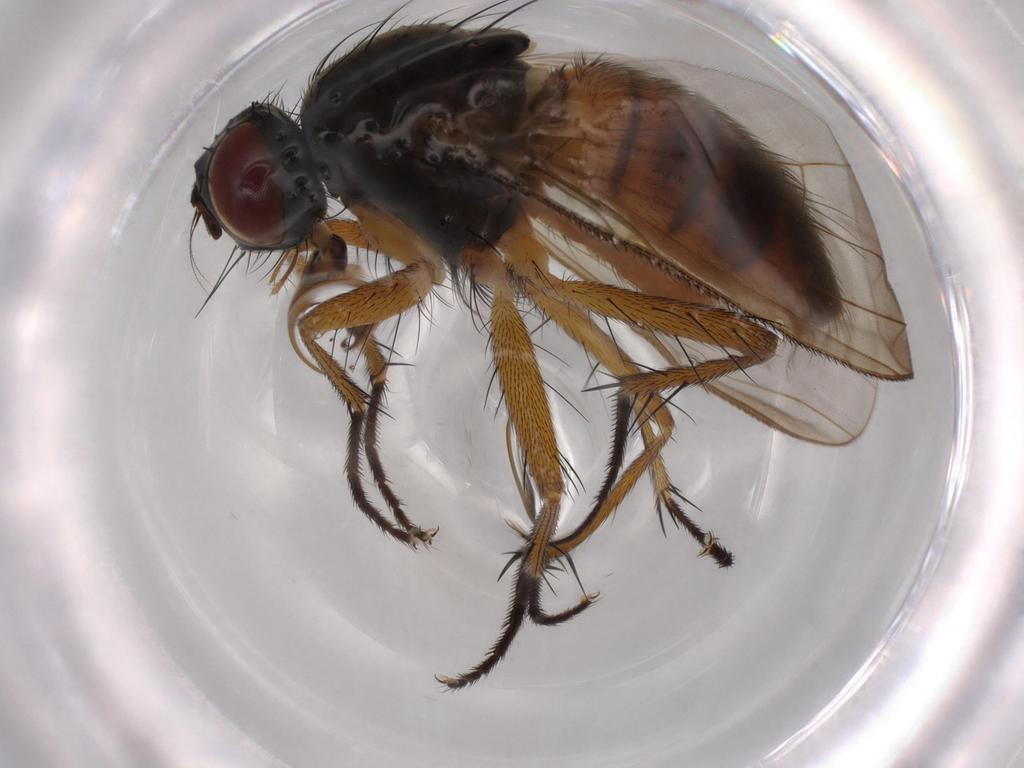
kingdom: Animalia
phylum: Arthropoda
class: Insecta
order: Diptera
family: Muscidae
